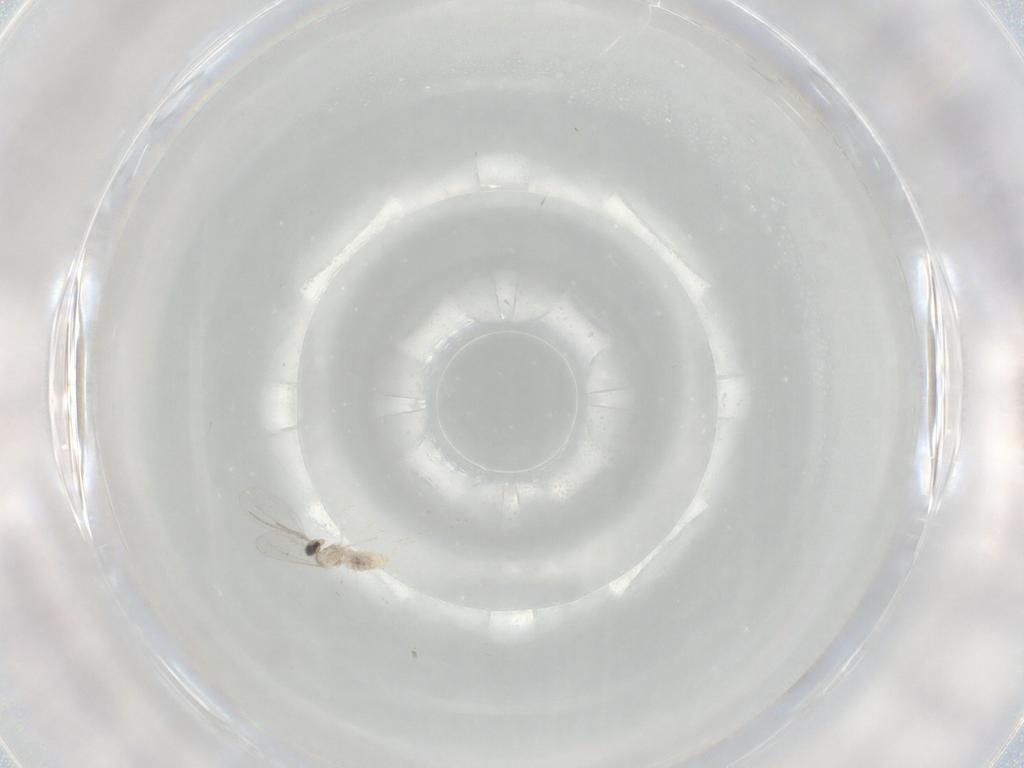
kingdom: Animalia
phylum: Arthropoda
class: Insecta
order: Diptera
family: Cecidomyiidae
